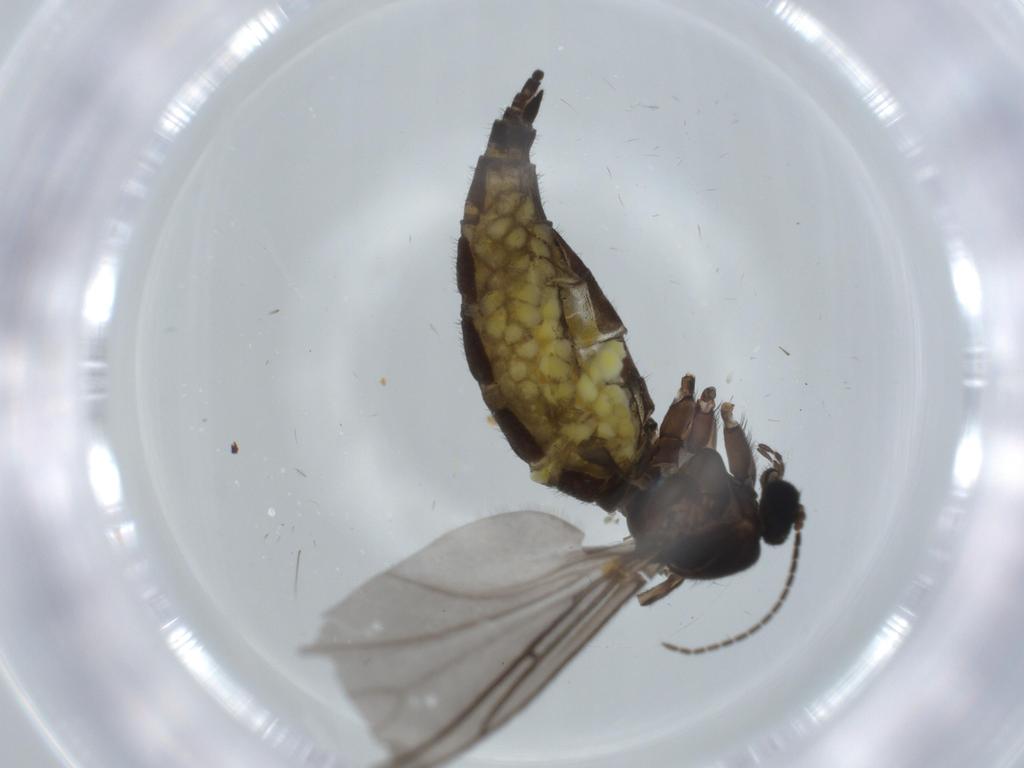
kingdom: Animalia
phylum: Arthropoda
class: Insecta
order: Diptera
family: Sciaridae
